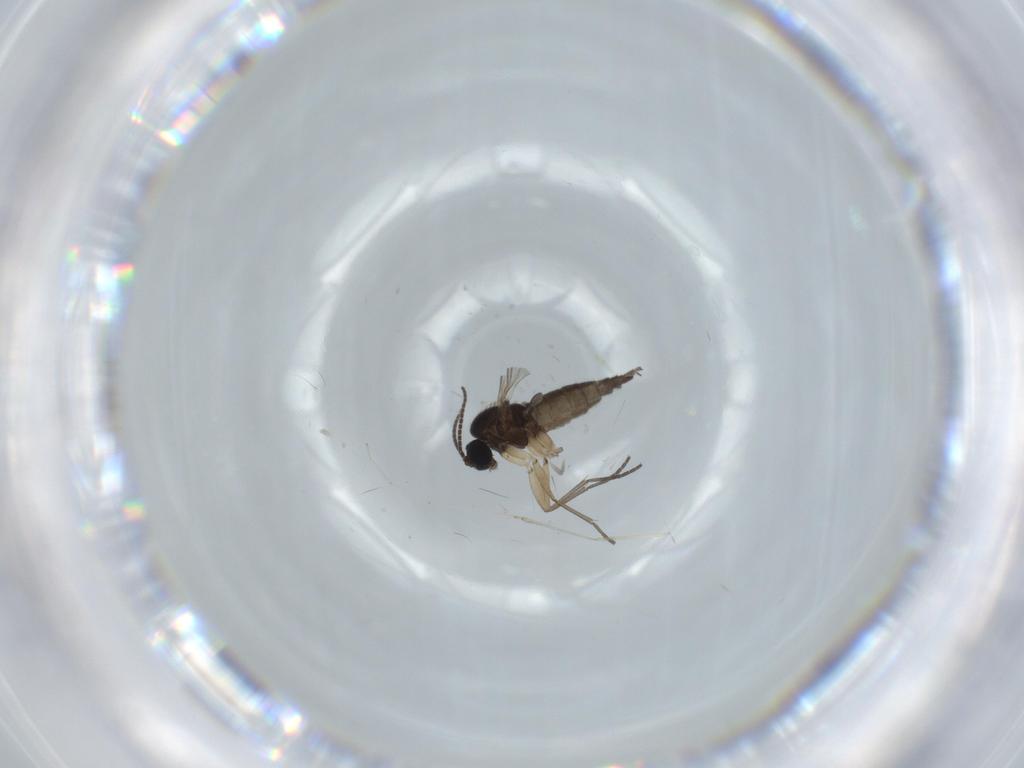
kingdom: Animalia
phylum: Arthropoda
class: Insecta
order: Diptera
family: Sciaridae
